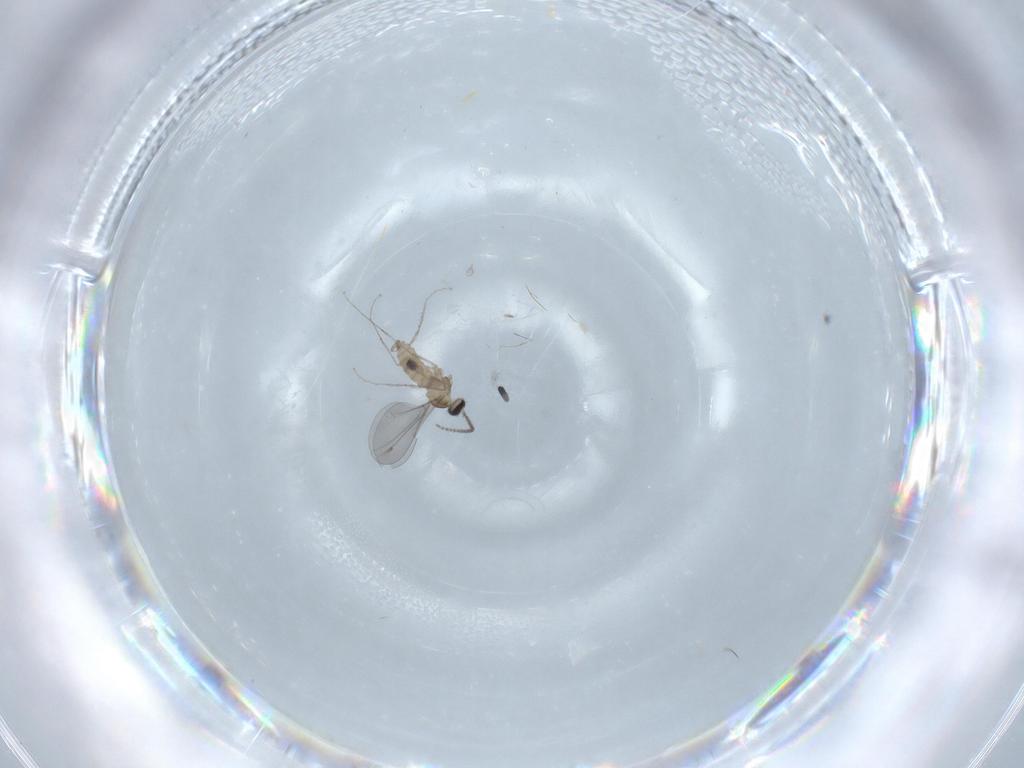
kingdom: Animalia
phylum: Arthropoda
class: Insecta
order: Diptera
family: Cecidomyiidae
